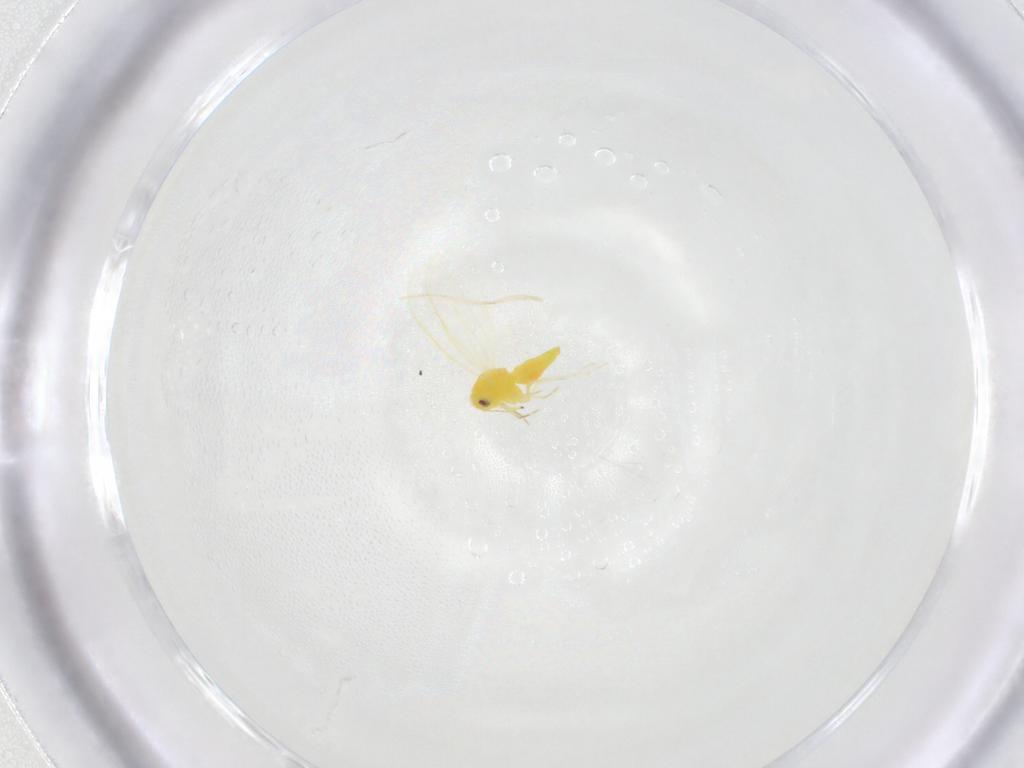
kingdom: Animalia
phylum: Arthropoda
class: Insecta
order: Hemiptera
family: Aleyrodidae
